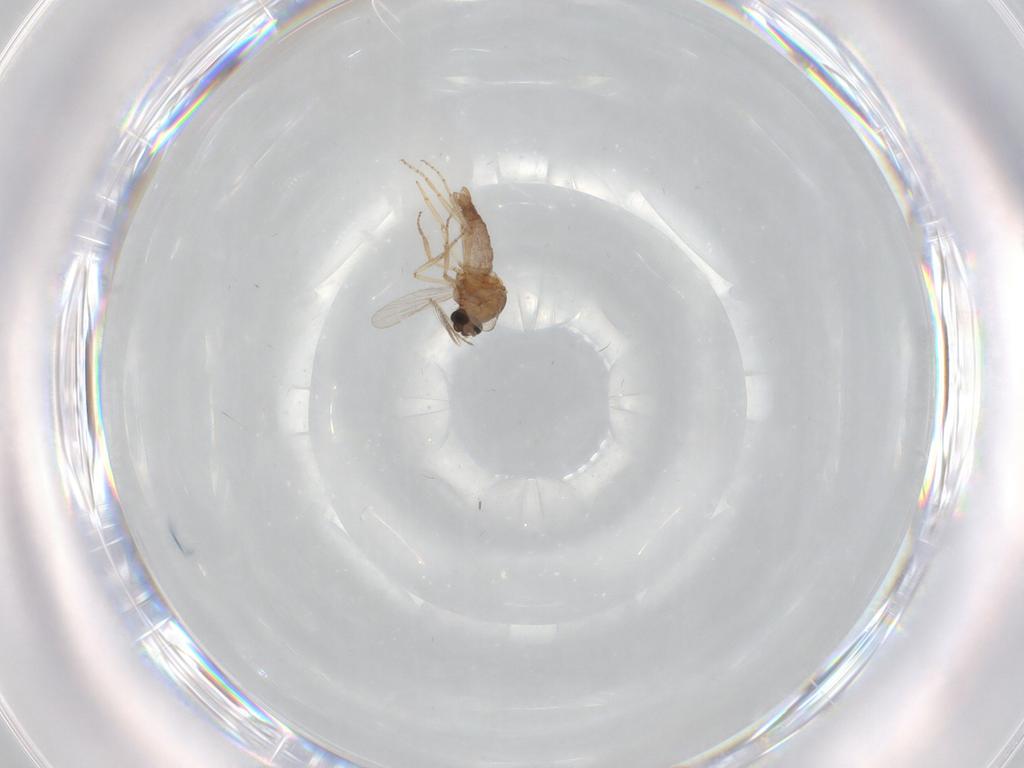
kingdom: Animalia
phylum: Arthropoda
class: Insecta
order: Diptera
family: Ceratopogonidae
